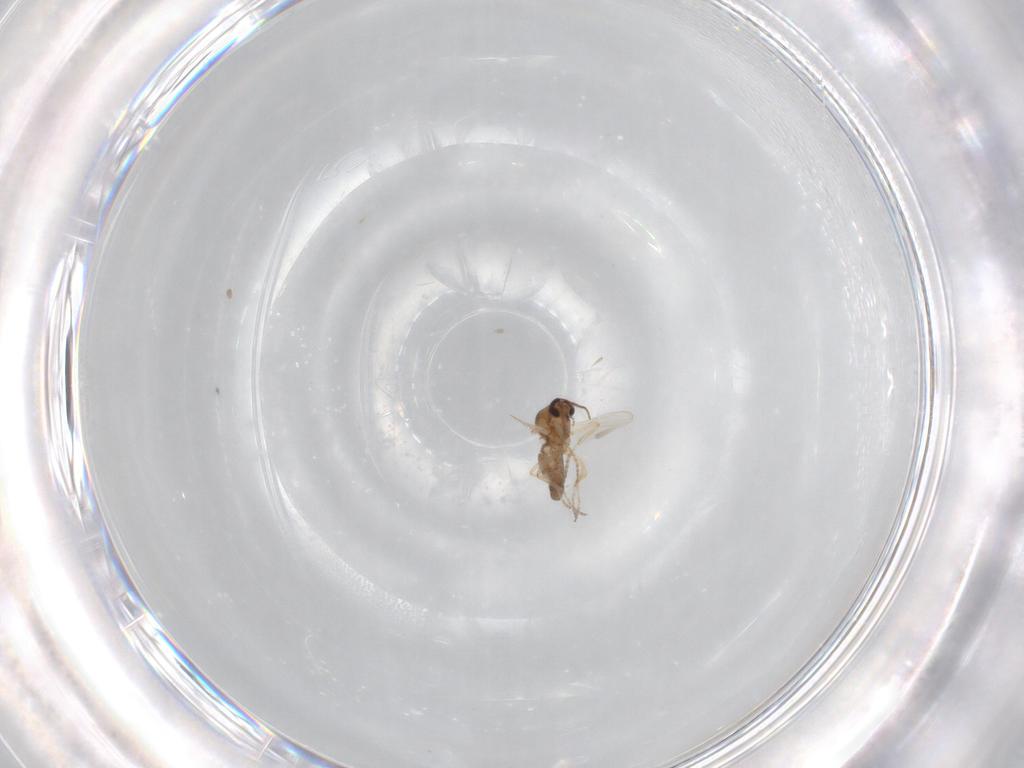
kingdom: Animalia
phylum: Arthropoda
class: Insecta
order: Diptera
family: Ceratopogonidae
